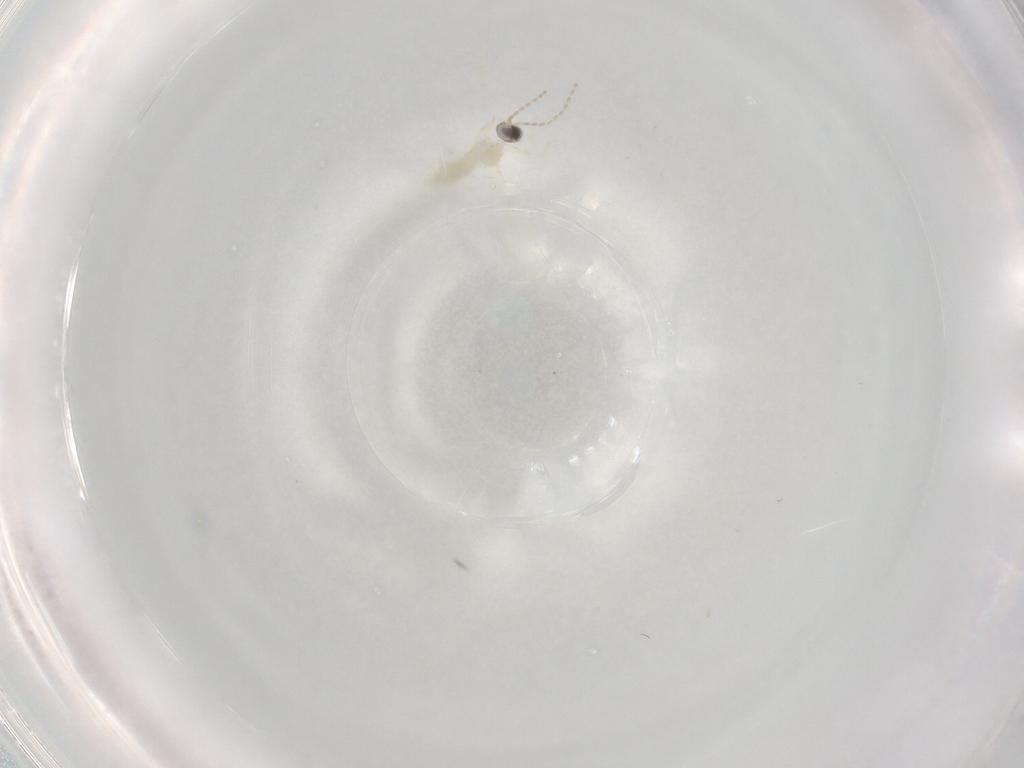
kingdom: Animalia
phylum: Arthropoda
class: Insecta
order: Diptera
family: Cecidomyiidae
